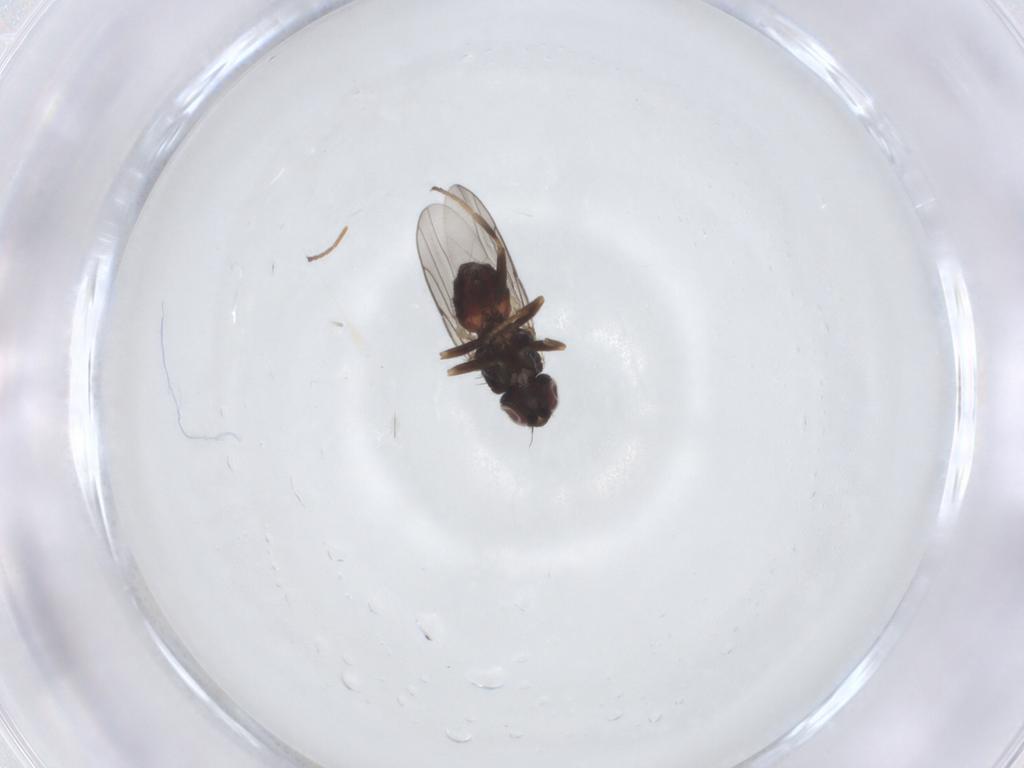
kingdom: Animalia
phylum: Arthropoda
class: Insecta
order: Diptera
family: Chloropidae
